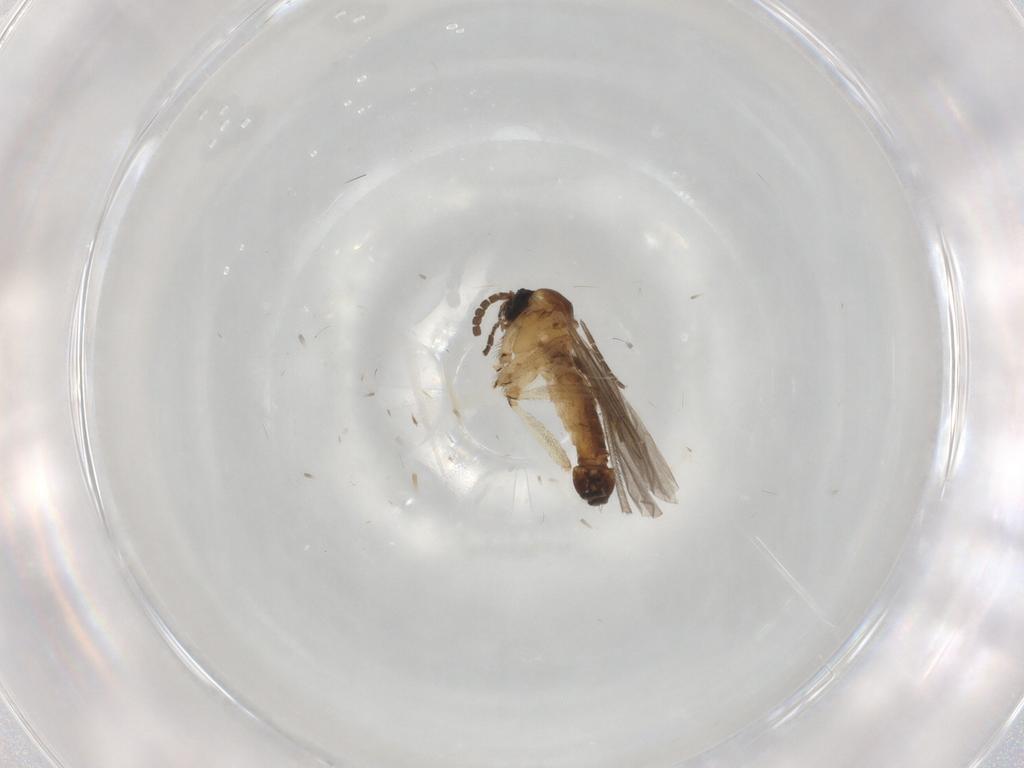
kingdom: Animalia
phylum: Arthropoda
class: Insecta
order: Diptera
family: Sciaridae
